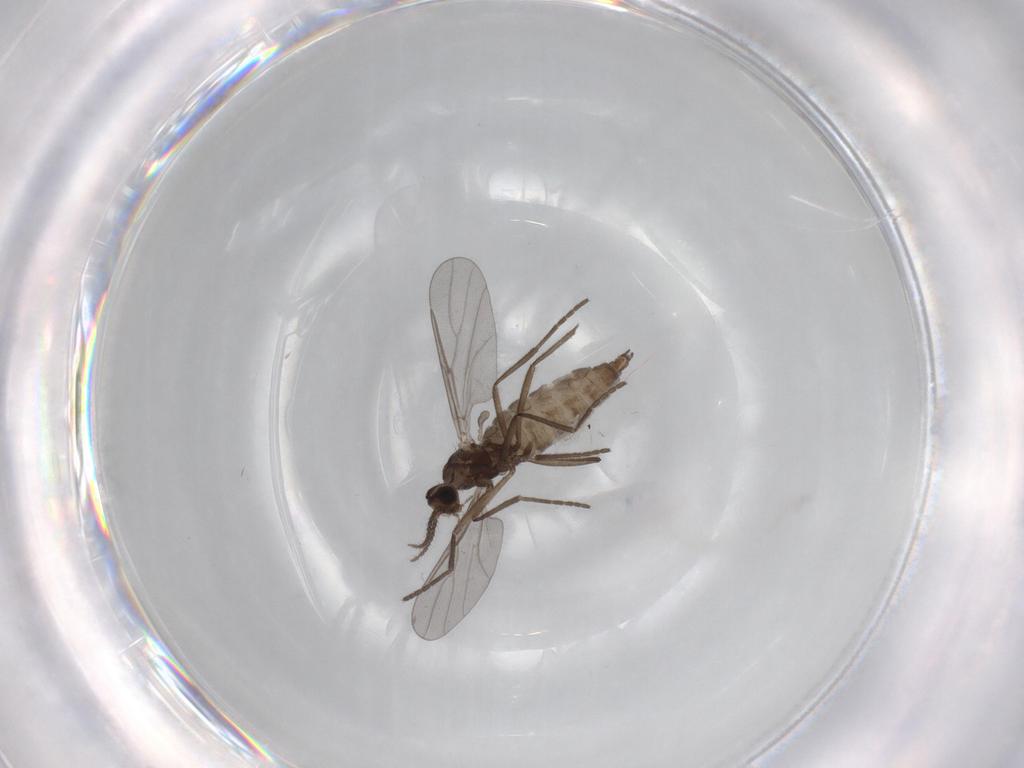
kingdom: Animalia
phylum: Arthropoda
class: Insecta
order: Diptera
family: Cecidomyiidae
